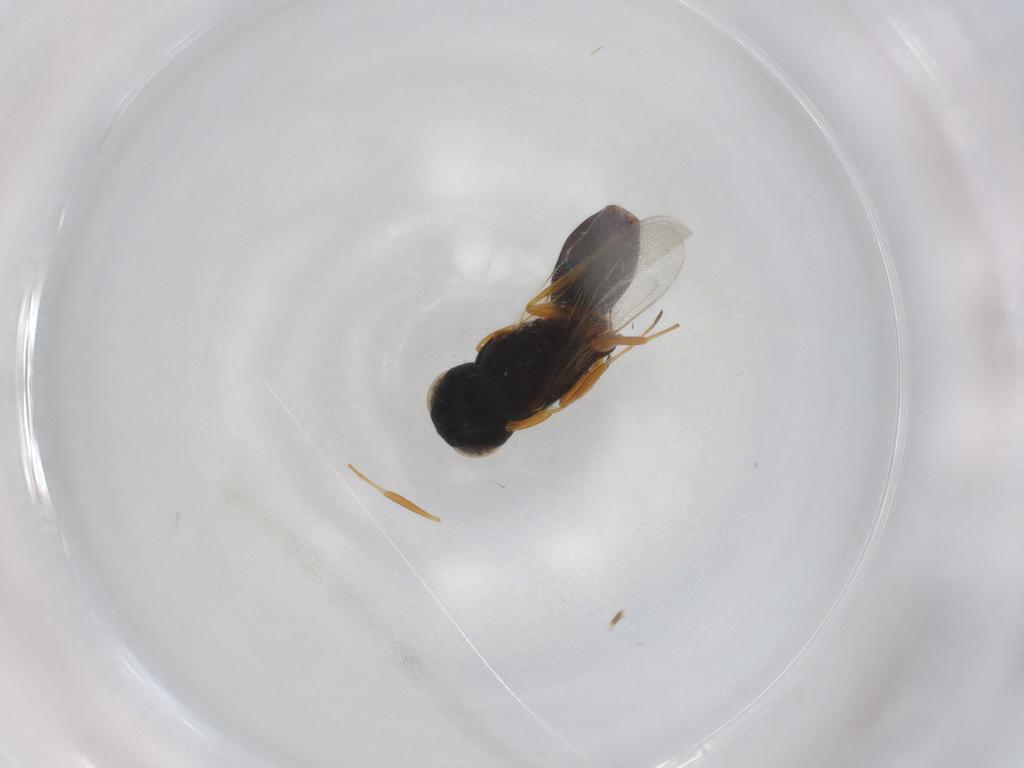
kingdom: Animalia
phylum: Arthropoda
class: Insecta
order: Hymenoptera
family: Scelionidae
